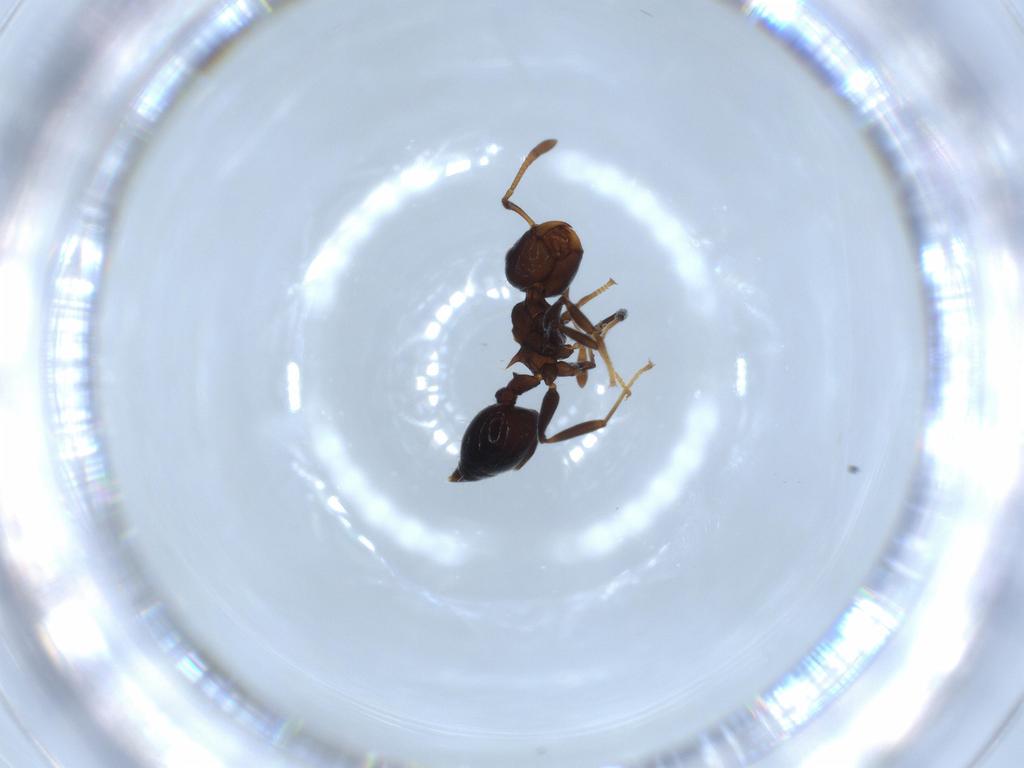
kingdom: Animalia
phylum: Arthropoda
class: Insecta
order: Hymenoptera
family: Formicidae
